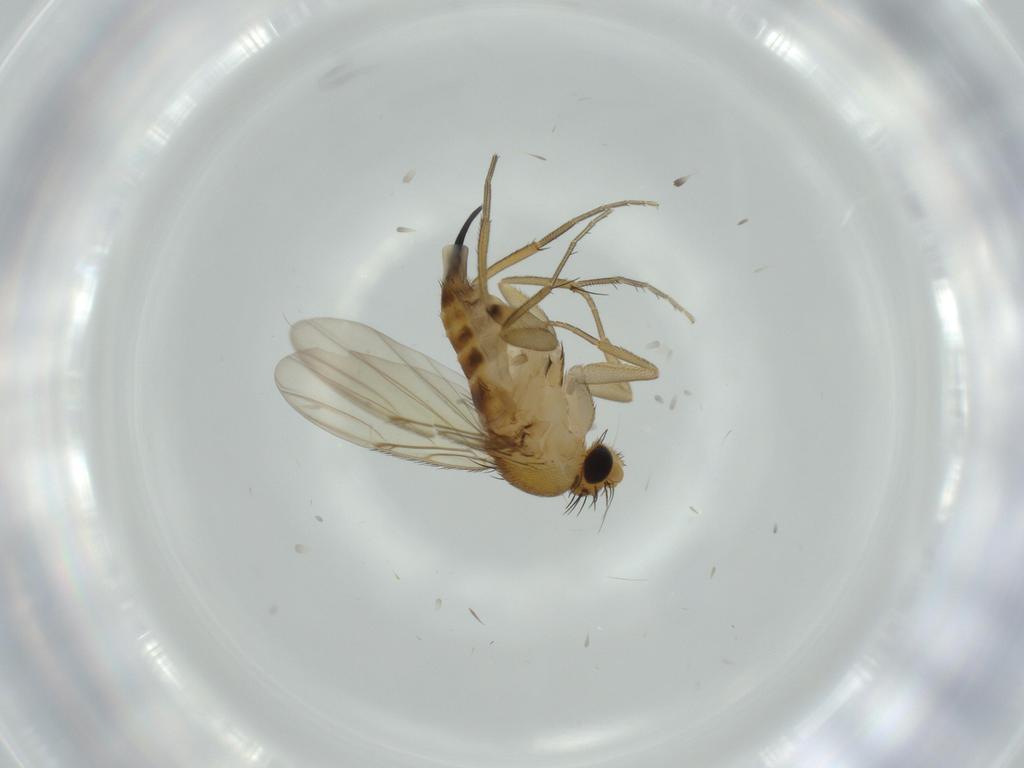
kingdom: Animalia
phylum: Arthropoda
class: Insecta
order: Diptera
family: Phoridae
